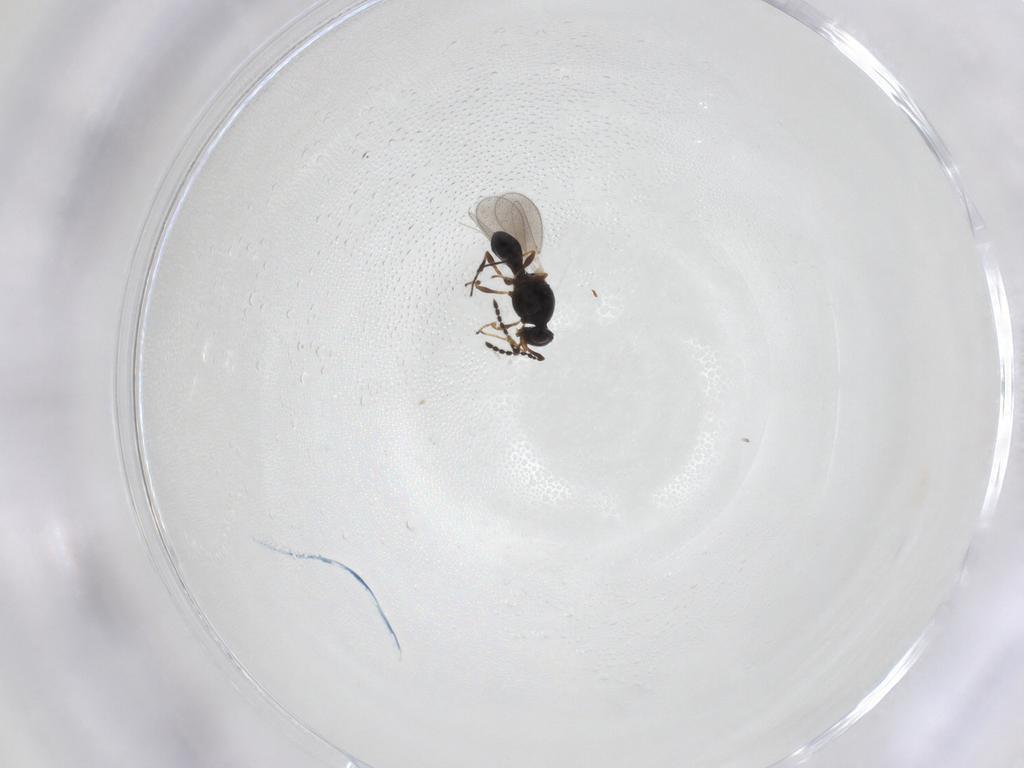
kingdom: Animalia
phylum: Arthropoda
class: Insecta
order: Hymenoptera
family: Platygastridae
